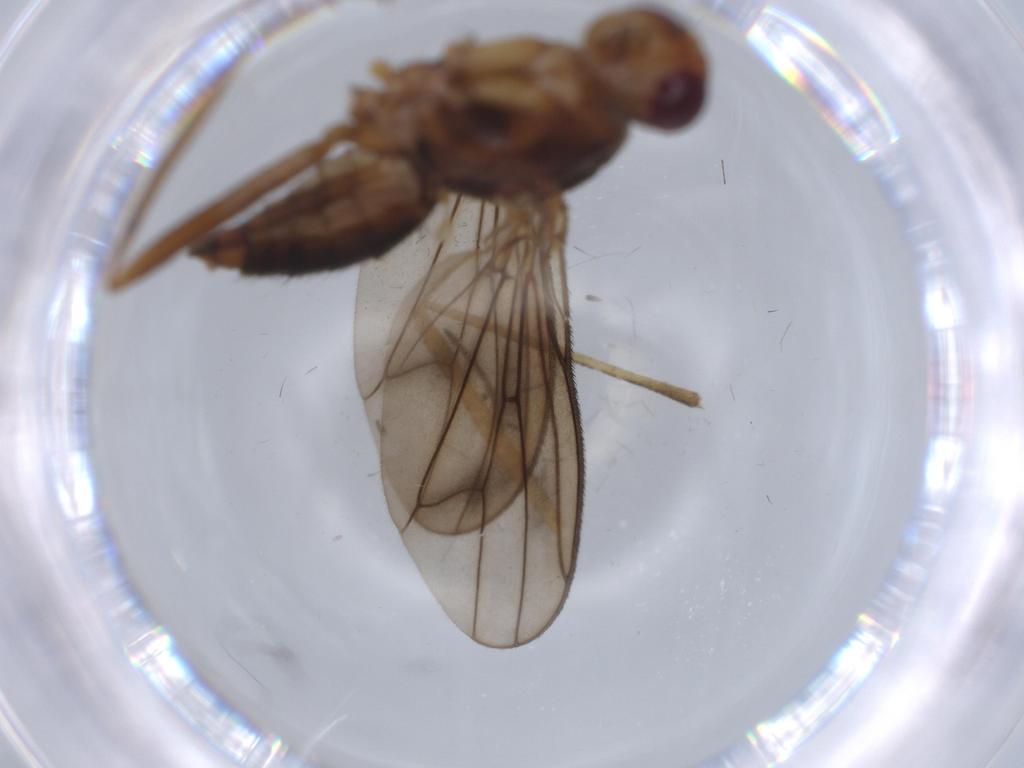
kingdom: Animalia
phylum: Arthropoda
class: Insecta
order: Diptera
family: Scathophagidae
